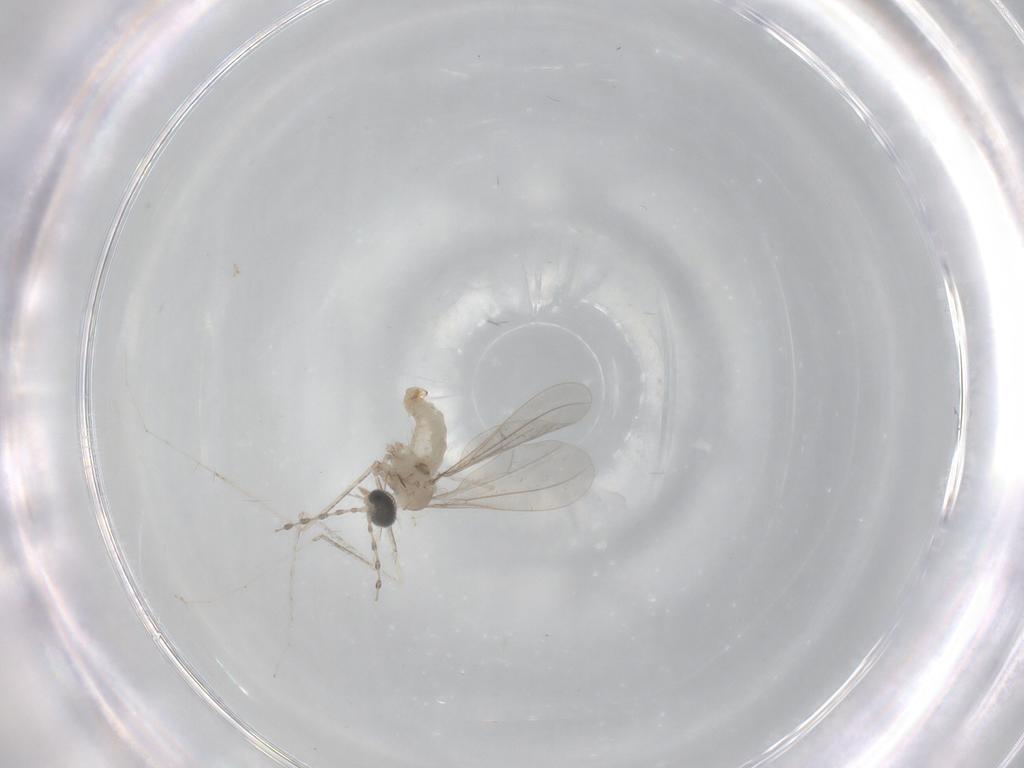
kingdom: Animalia
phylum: Arthropoda
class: Insecta
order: Diptera
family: Cecidomyiidae
